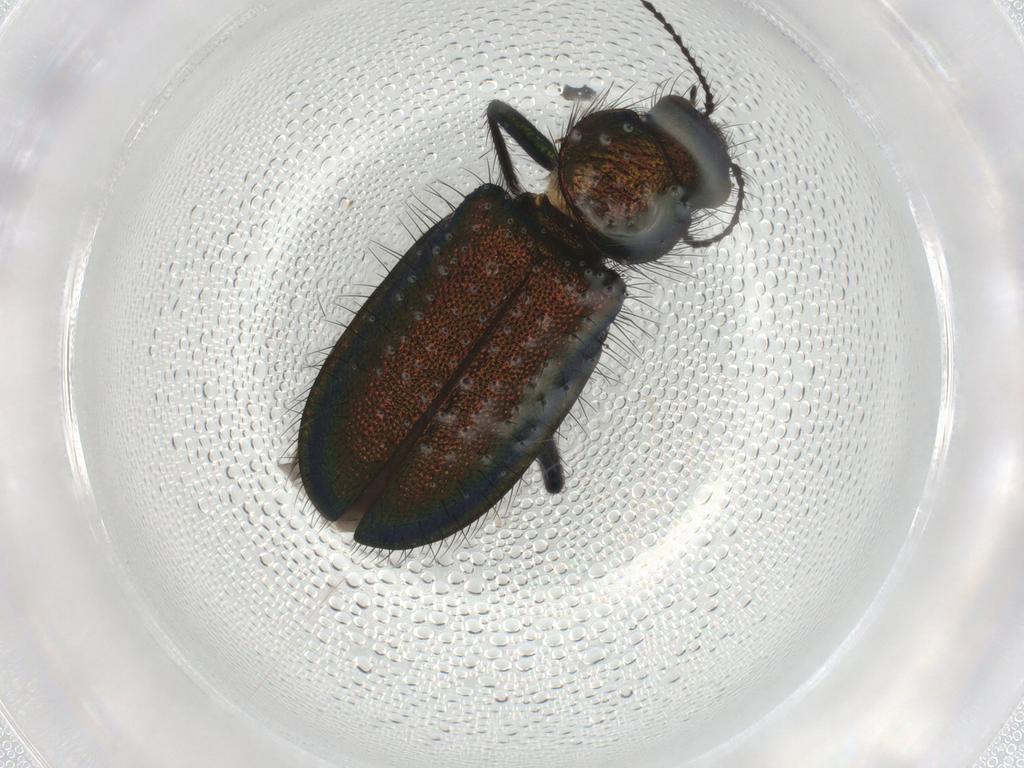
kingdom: Animalia
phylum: Arthropoda
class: Insecta
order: Coleoptera
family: Melyridae
